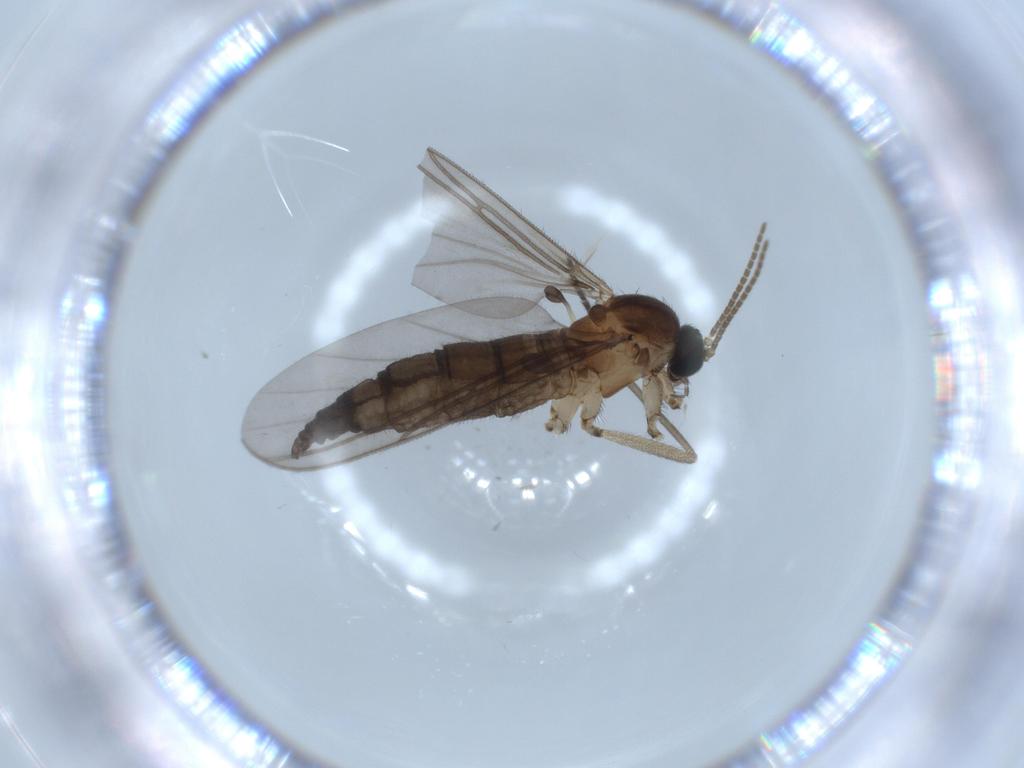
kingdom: Animalia
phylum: Arthropoda
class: Insecta
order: Diptera
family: Sciaridae
